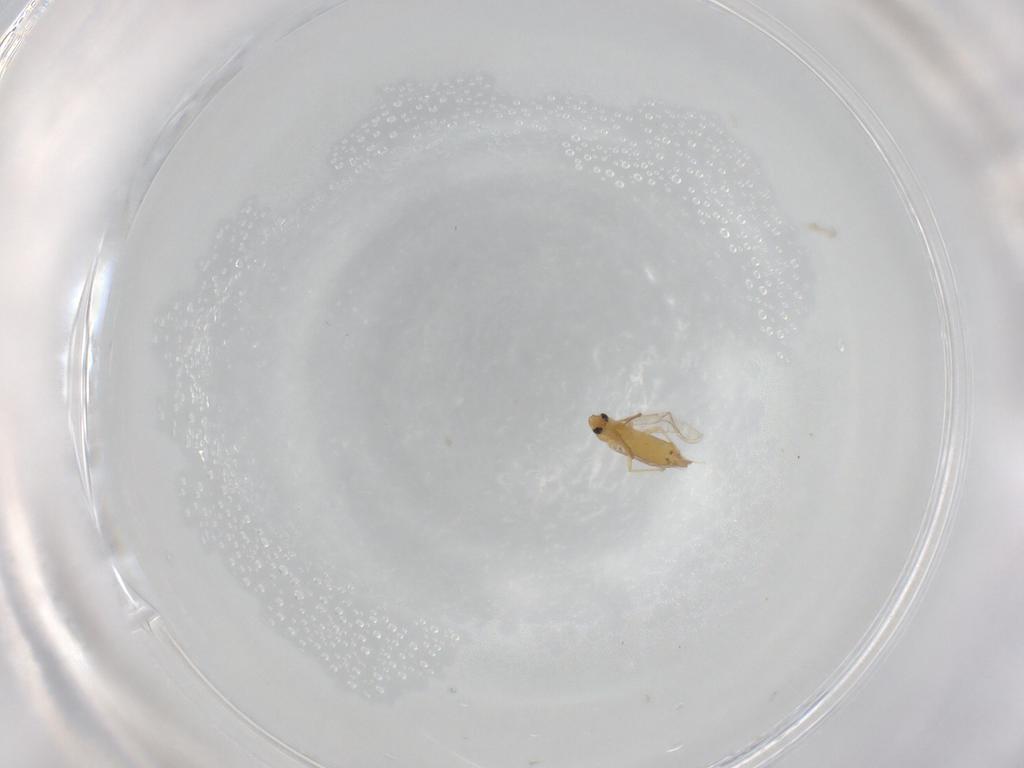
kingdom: Animalia
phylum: Arthropoda
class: Insecta
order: Diptera
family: Chironomidae
